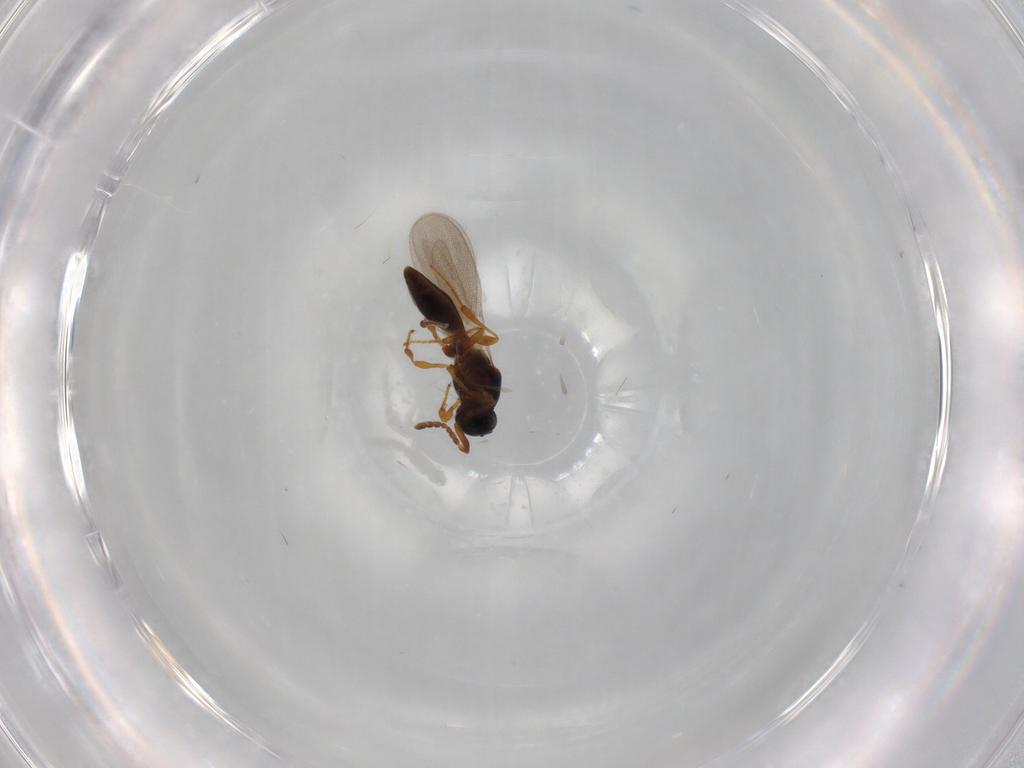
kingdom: Animalia
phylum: Arthropoda
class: Insecta
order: Hymenoptera
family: Platygastridae
